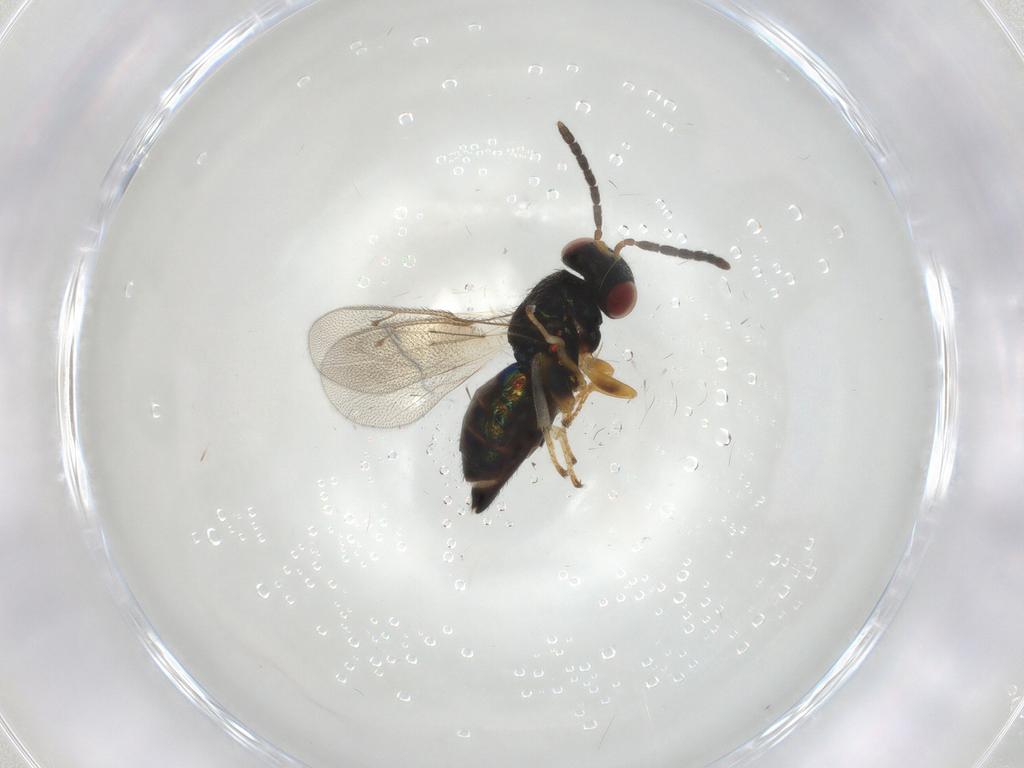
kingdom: Animalia
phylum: Arthropoda
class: Insecta
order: Hymenoptera
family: Pteromalidae
